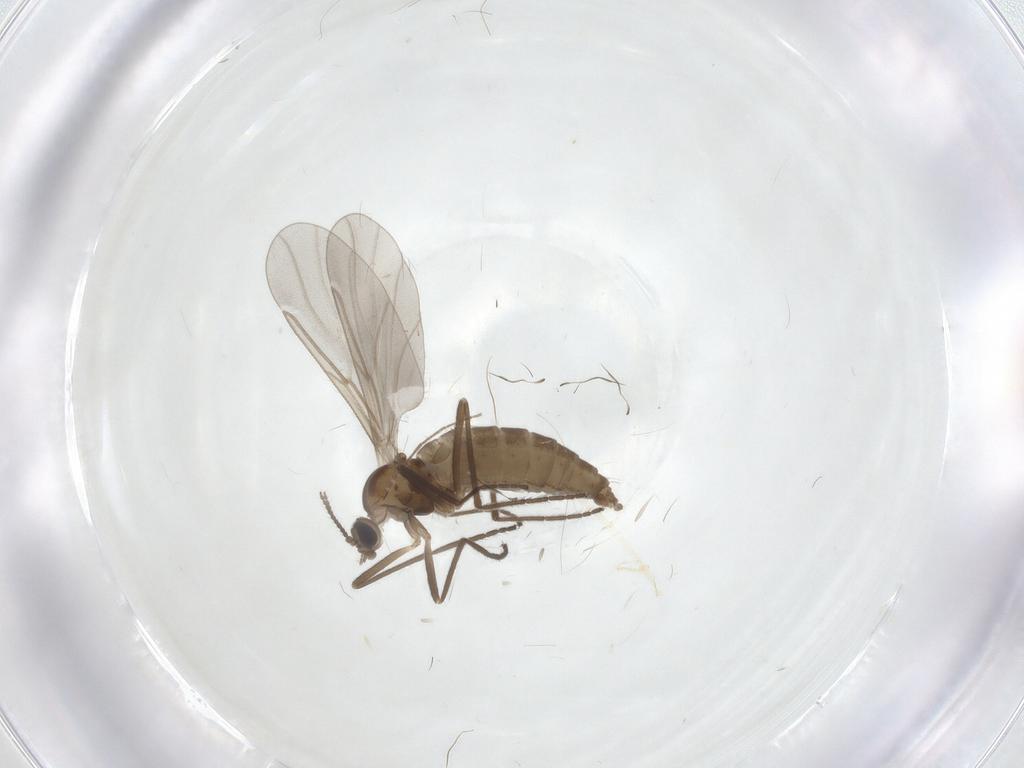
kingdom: Animalia
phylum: Arthropoda
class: Insecta
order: Diptera
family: Cecidomyiidae
